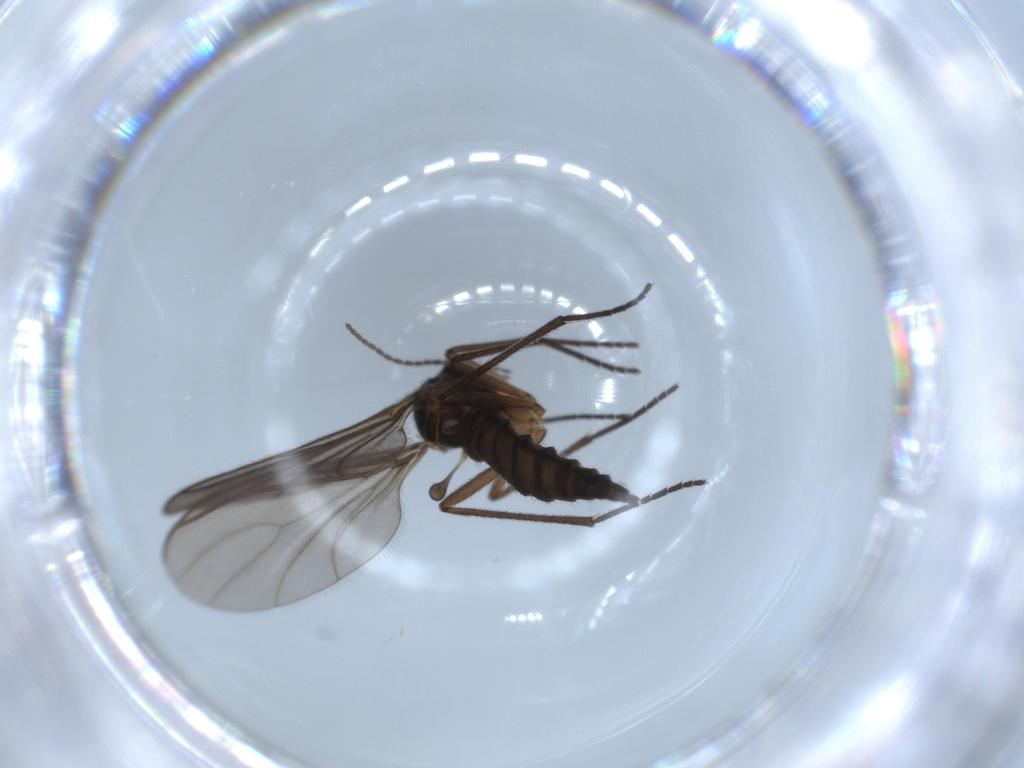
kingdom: Animalia
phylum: Arthropoda
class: Insecta
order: Diptera
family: Sciaridae
